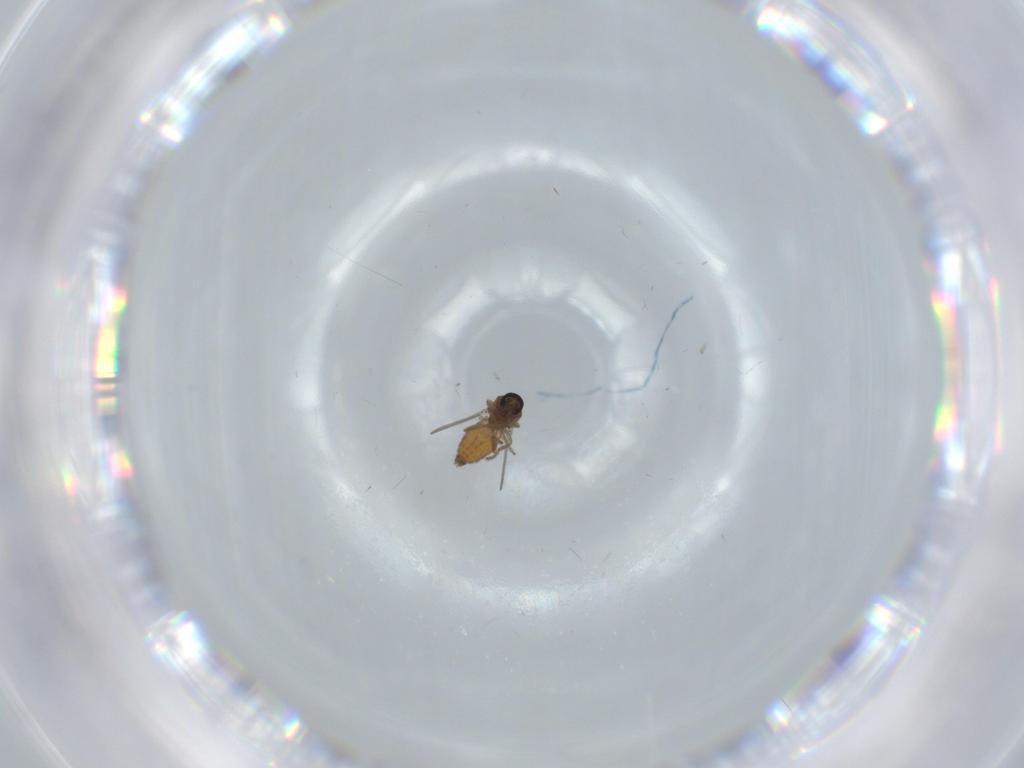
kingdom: Animalia
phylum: Arthropoda
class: Insecta
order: Diptera
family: Ceratopogonidae
